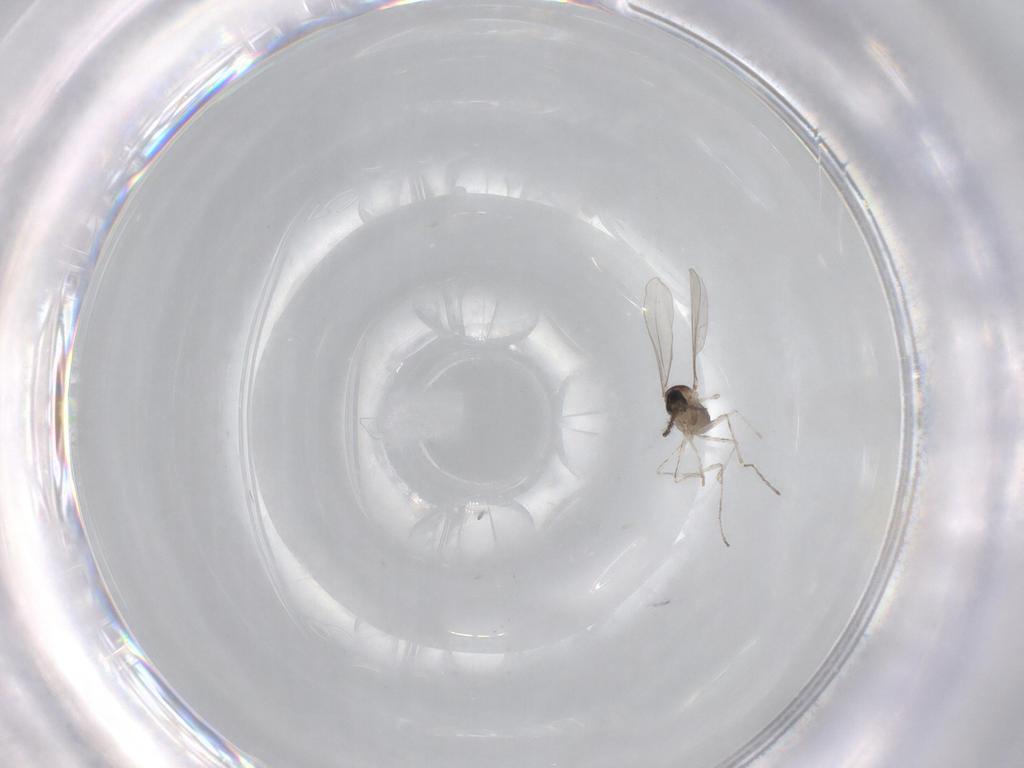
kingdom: Animalia
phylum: Arthropoda
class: Insecta
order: Diptera
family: Cecidomyiidae
